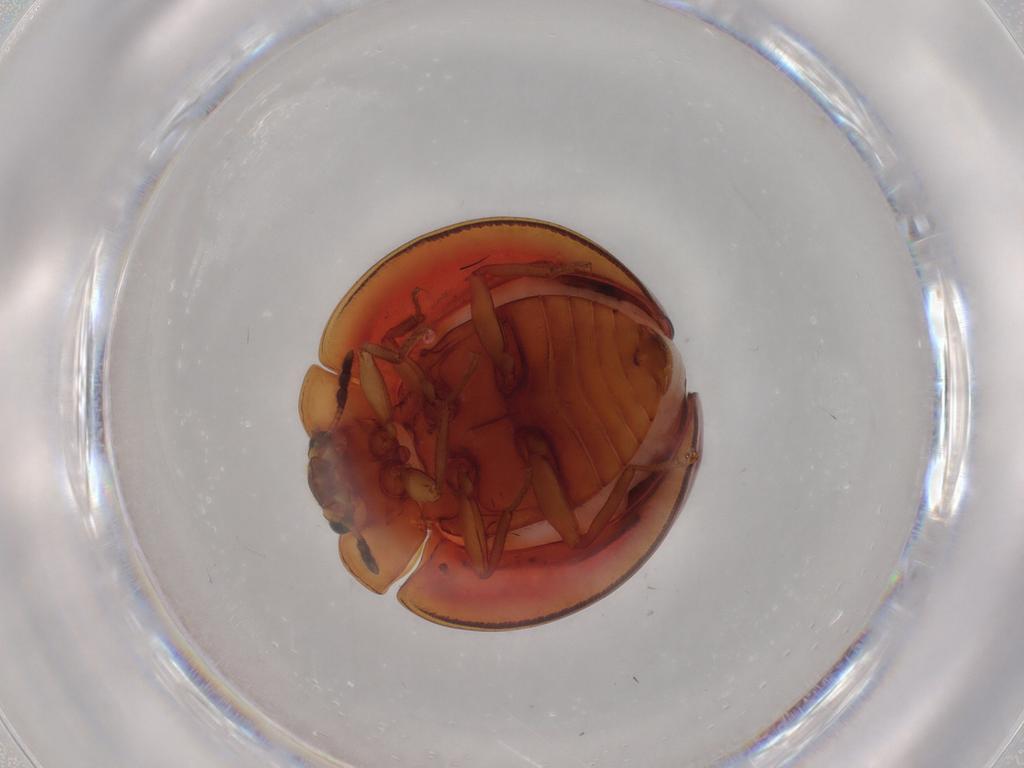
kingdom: Animalia
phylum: Arthropoda
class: Insecta
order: Coleoptera
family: Anamorphidae
